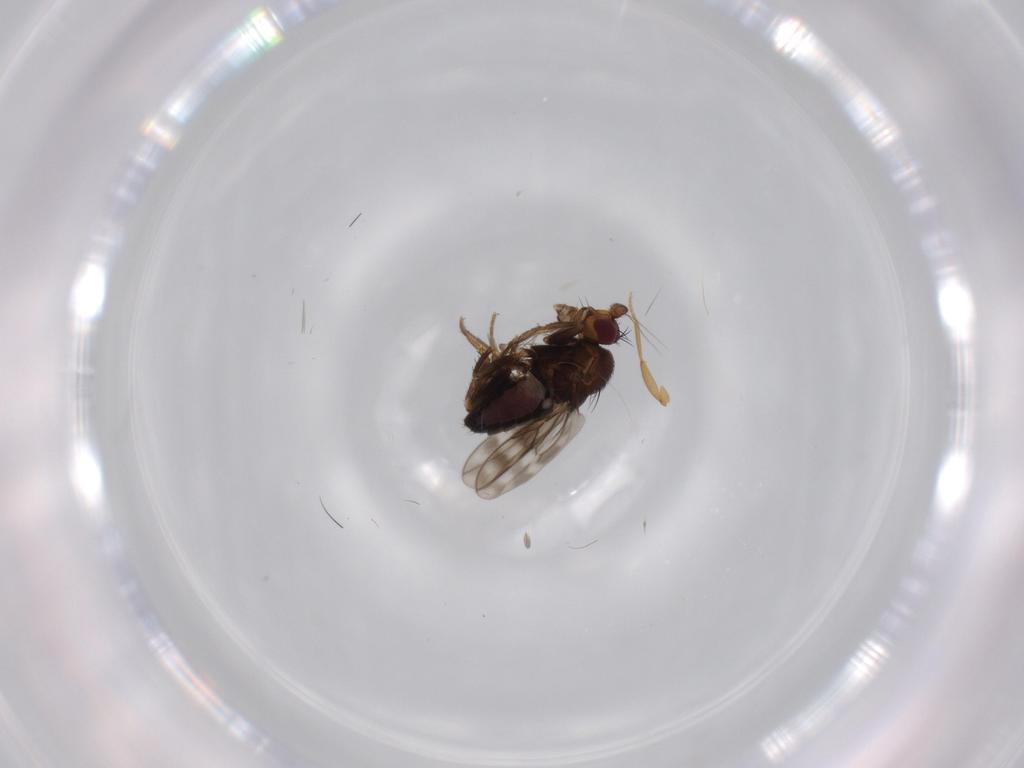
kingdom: Animalia
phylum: Arthropoda
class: Insecta
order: Diptera
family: Sphaeroceridae
